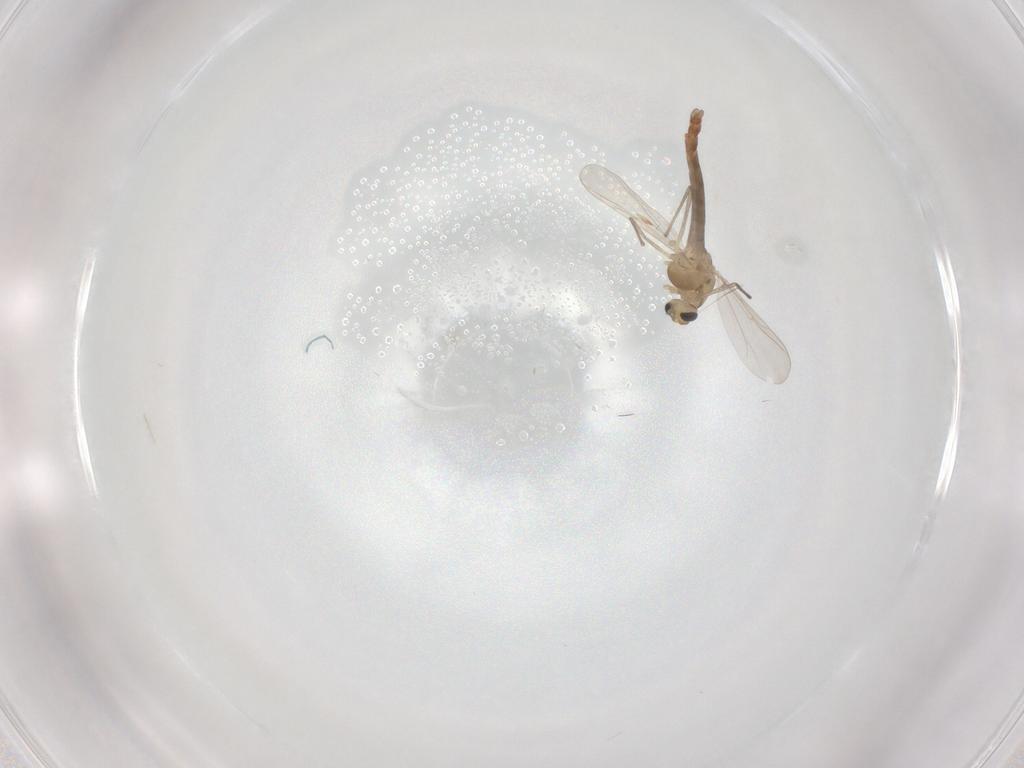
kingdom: Animalia
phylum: Arthropoda
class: Insecta
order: Diptera
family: Chironomidae
